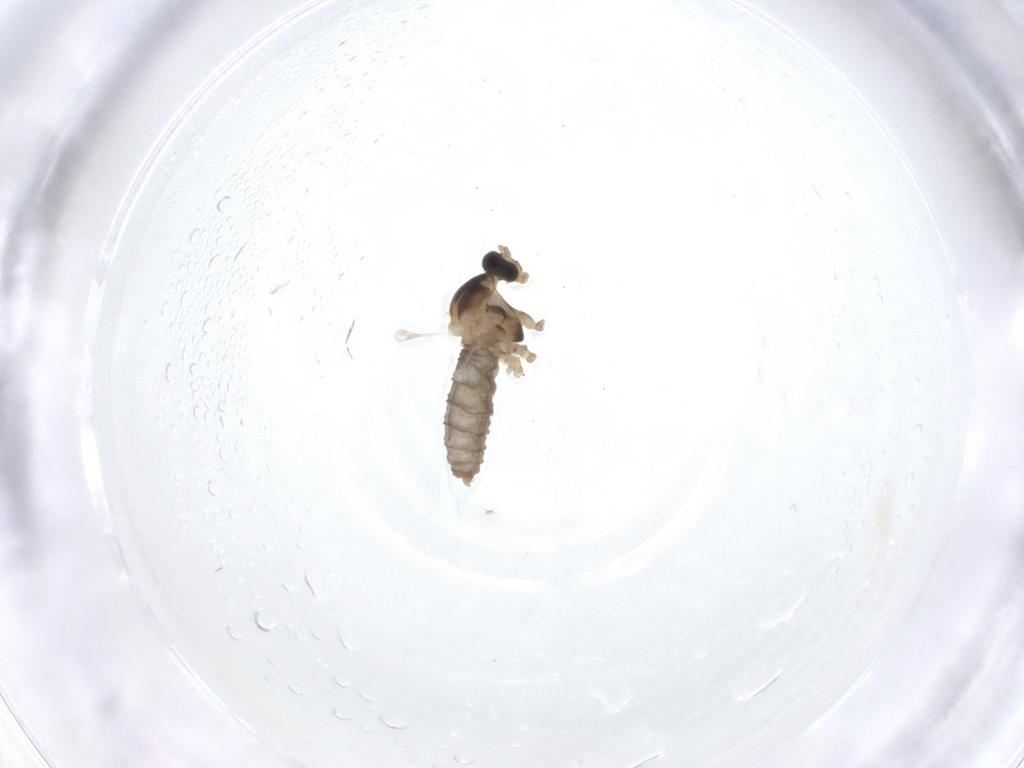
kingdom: Animalia
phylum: Arthropoda
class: Insecta
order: Diptera
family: Cecidomyiidae
